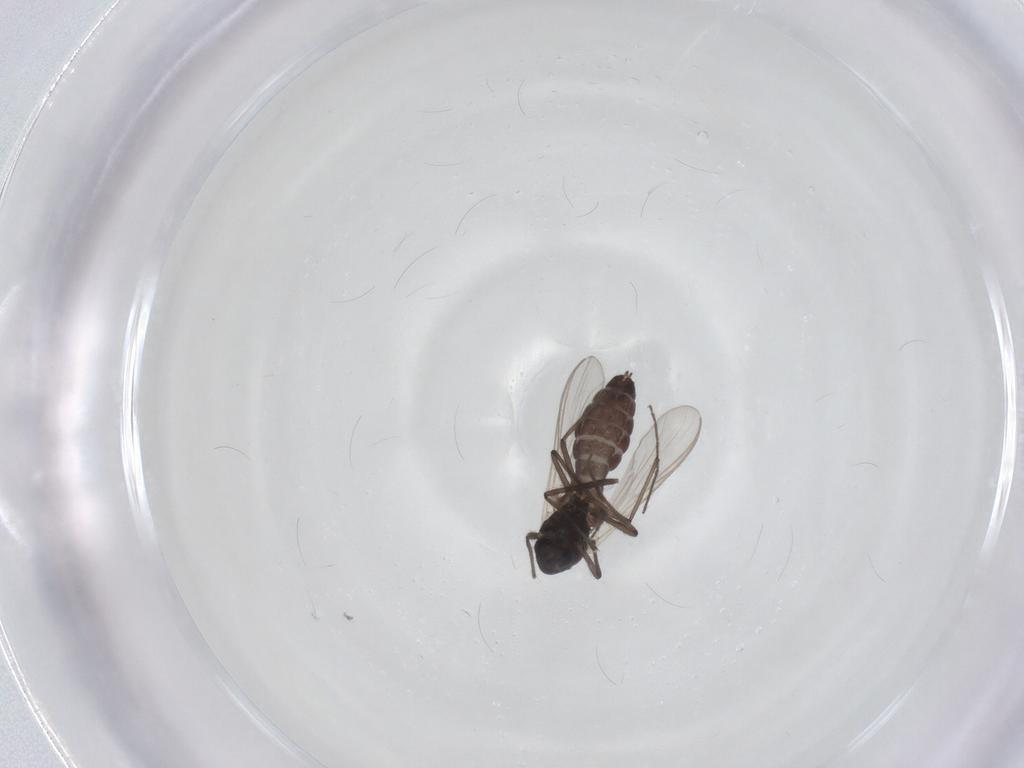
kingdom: Animalia
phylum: Arthropoda
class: Insecta
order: Diptera
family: Chironomidae
